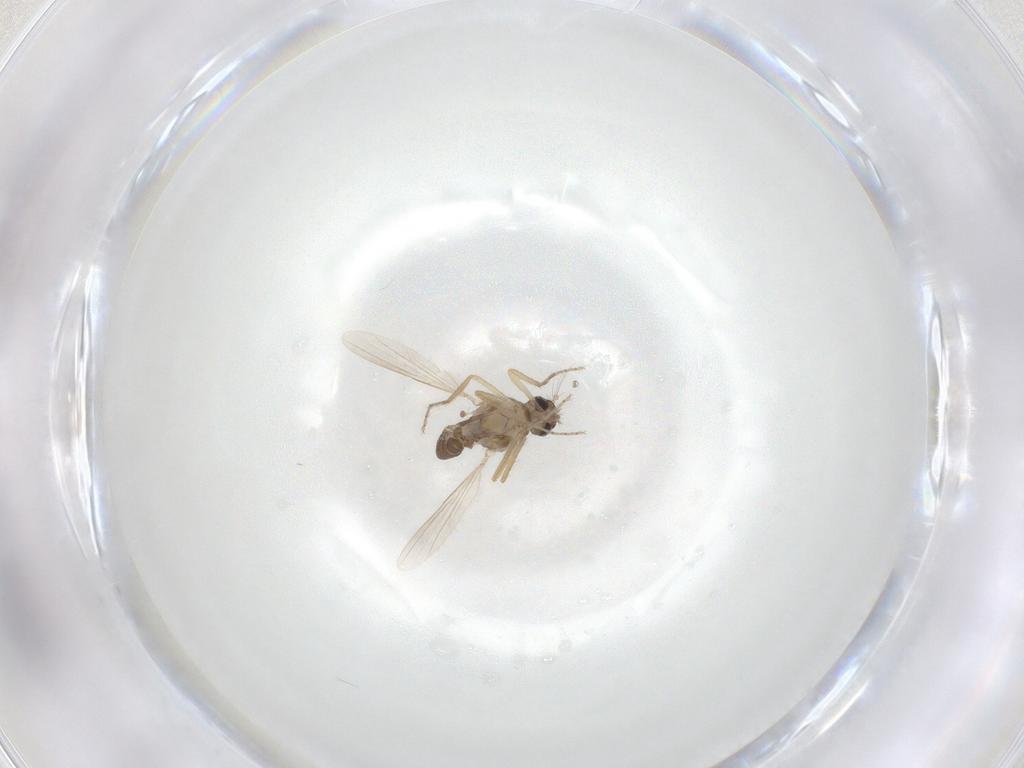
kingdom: Animalia
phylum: Arthropoda
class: Insecta
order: Diptera
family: Ceratopogonidae
